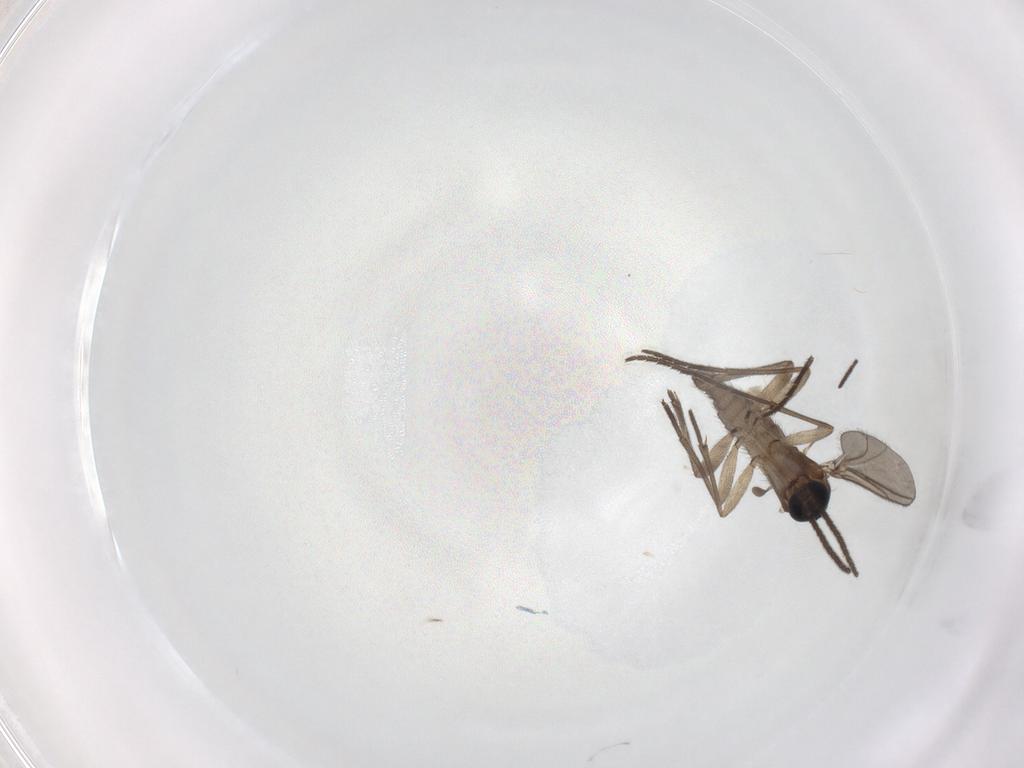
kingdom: Animalia
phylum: Arthropoda
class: Insecta
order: Diptera
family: Sciaridae
